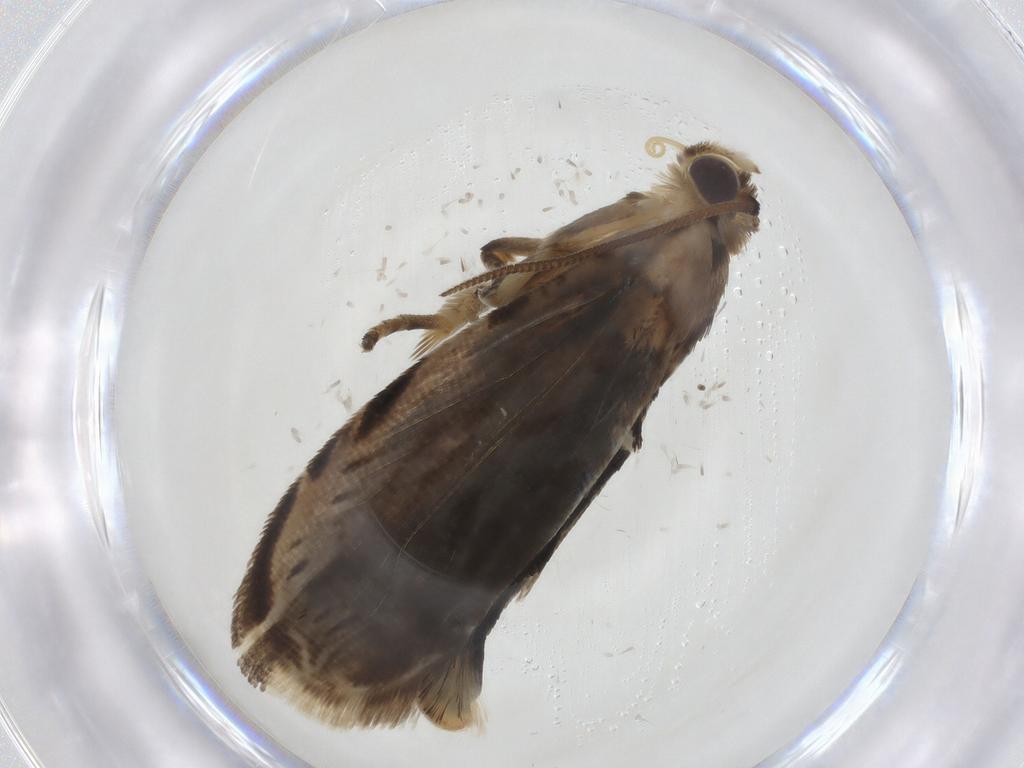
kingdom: Animalia
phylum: Arthropoda
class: Insecta
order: Lepidoptera
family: Tortricidae
